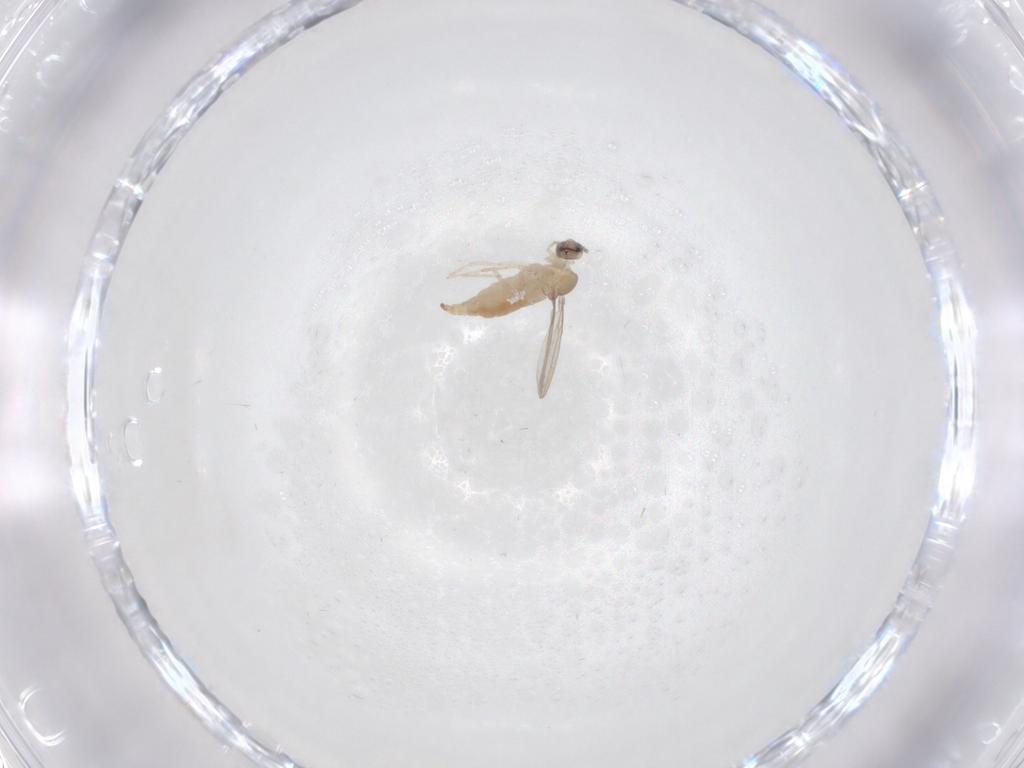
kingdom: Animalia
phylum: Arthropoda
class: Insecta
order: Diptera
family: Cecidomyiidae
